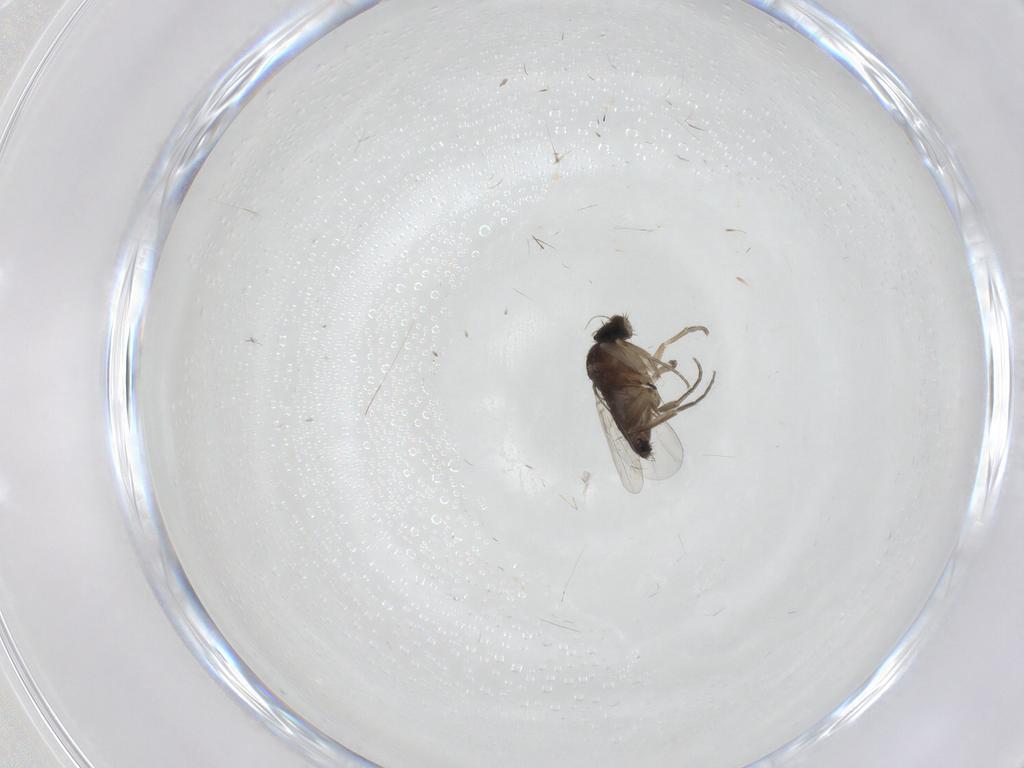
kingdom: Animalia
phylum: Arthropoda
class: Insecta
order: Diptera
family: Phoridae
